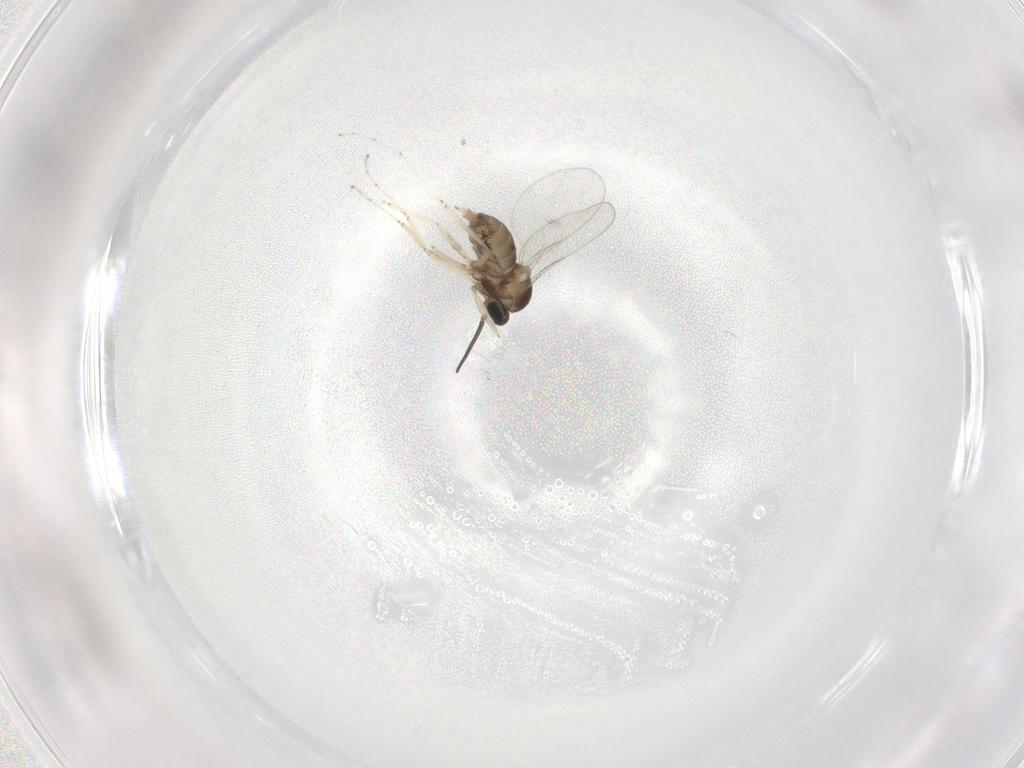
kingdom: Animalia
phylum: Arthropoda
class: Insecta
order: Diptera
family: Cecidomyiidae
